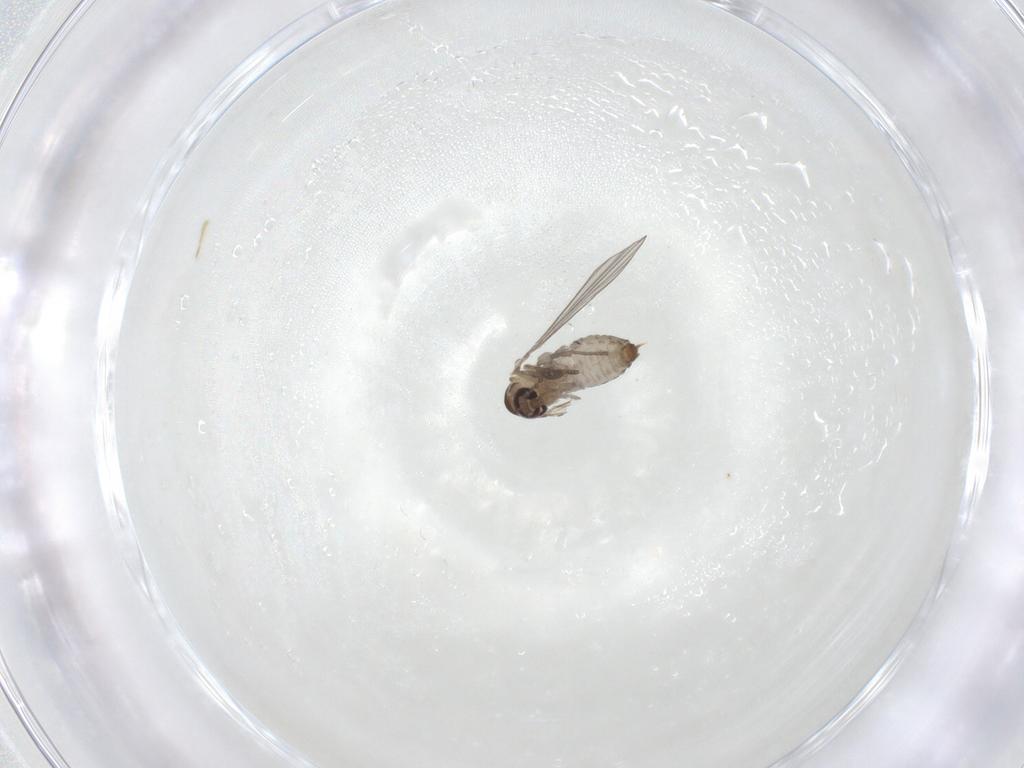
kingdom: Animalia
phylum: Arthropoda
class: Insecta
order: Diptera
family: Psychodidae
